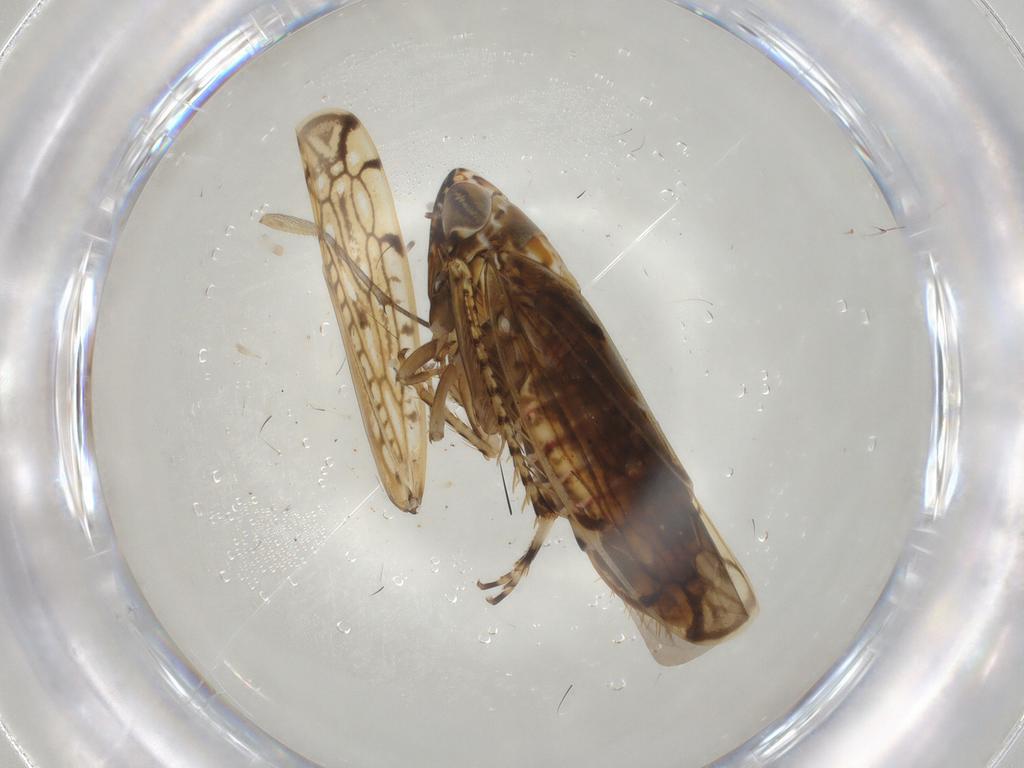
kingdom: Animalia
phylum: Arthropoda
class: Insecta
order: Hemiptera
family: Cicadellidae
